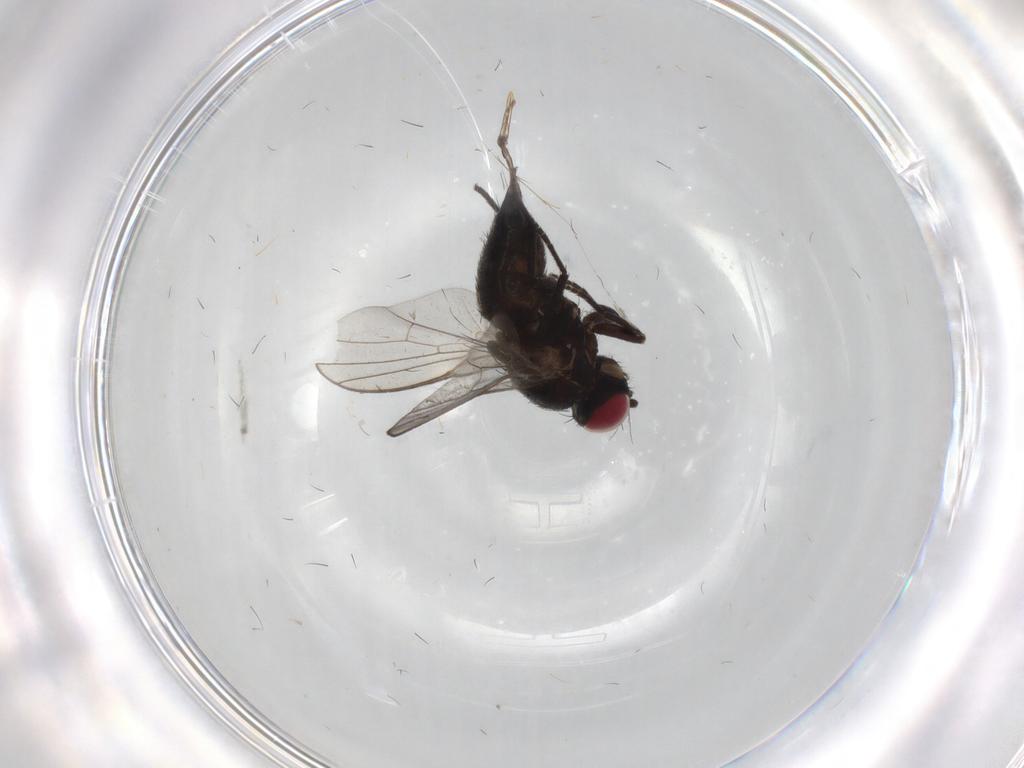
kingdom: Animalia
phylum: Arthropoda
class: Insecta
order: Diptera
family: Agromyzidae
